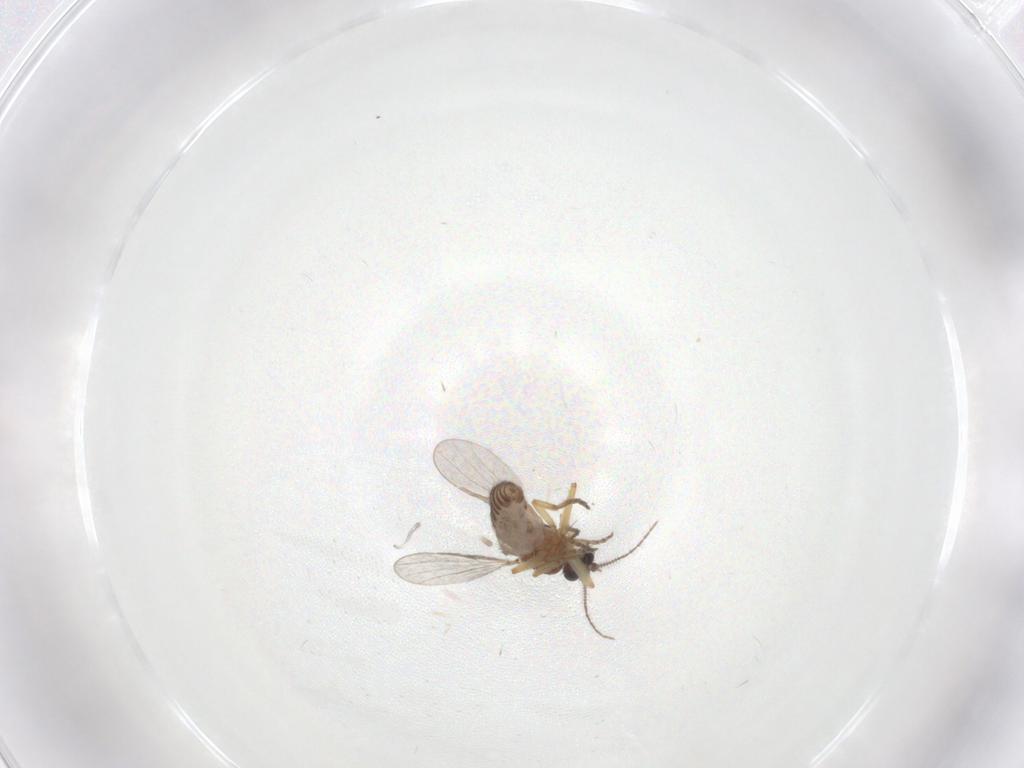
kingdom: Animalia
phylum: Arthropoda
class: Insecta
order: Diptera
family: Ceratopogonidae
